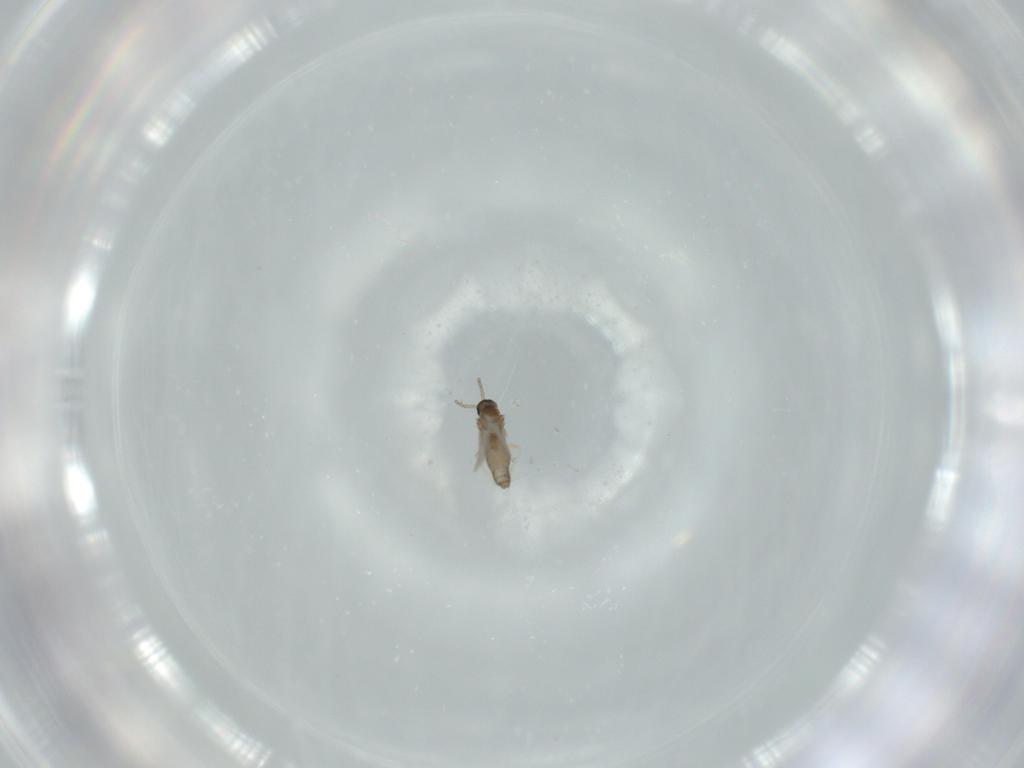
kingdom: Animalia
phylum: Arthropoda
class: Insecta
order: Diptera
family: Cecidomyiidae
